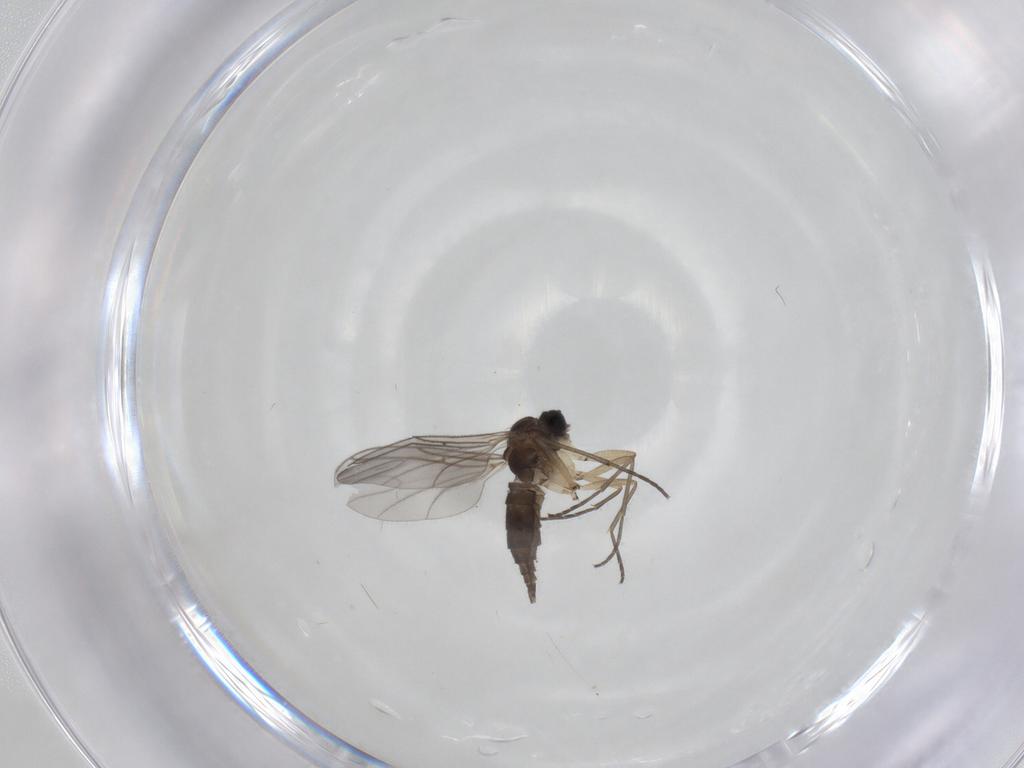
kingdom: Animalia
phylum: Arthropoda
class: Insecta
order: Diptera
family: Sciaridae
